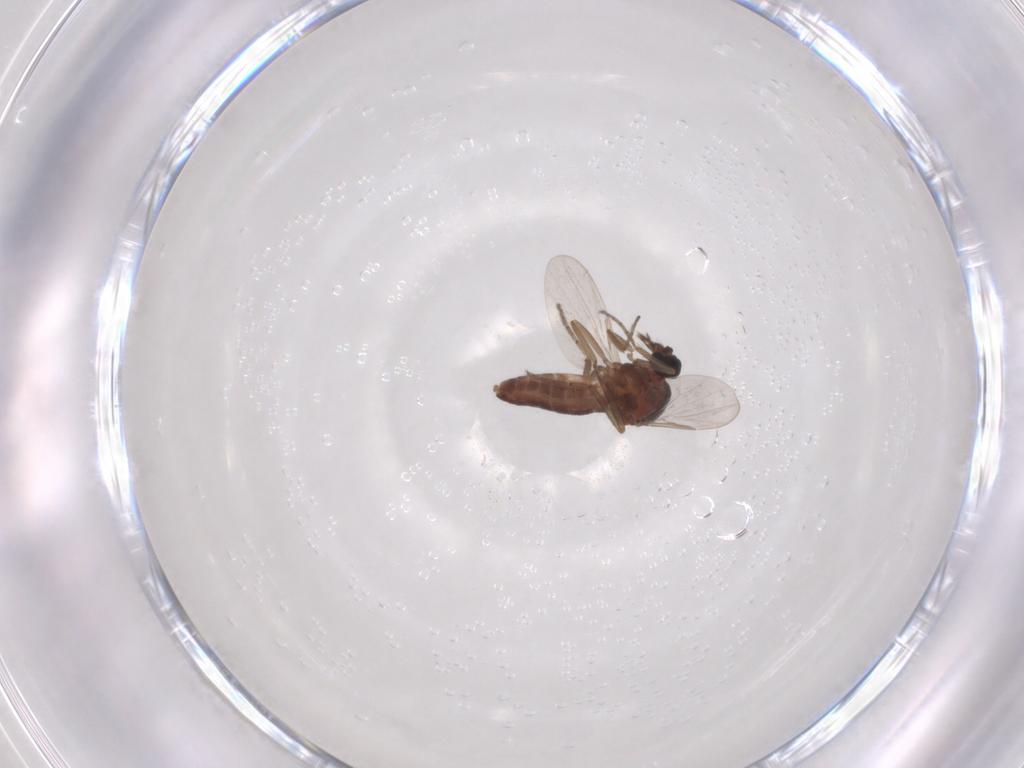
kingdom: Animalia
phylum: Arthropoda
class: Insecta
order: Diptera
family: Ceratopogonidae
